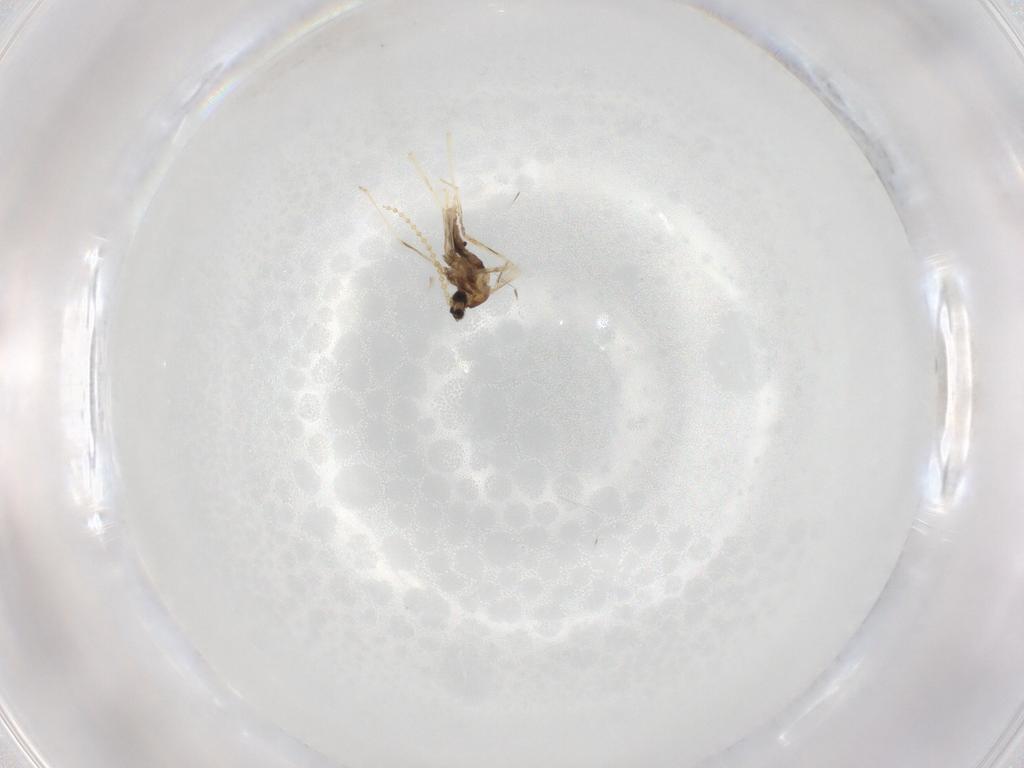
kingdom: Animalia
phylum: Arthropoda
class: Insecta
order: Diptera
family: Cecidomyiidae
